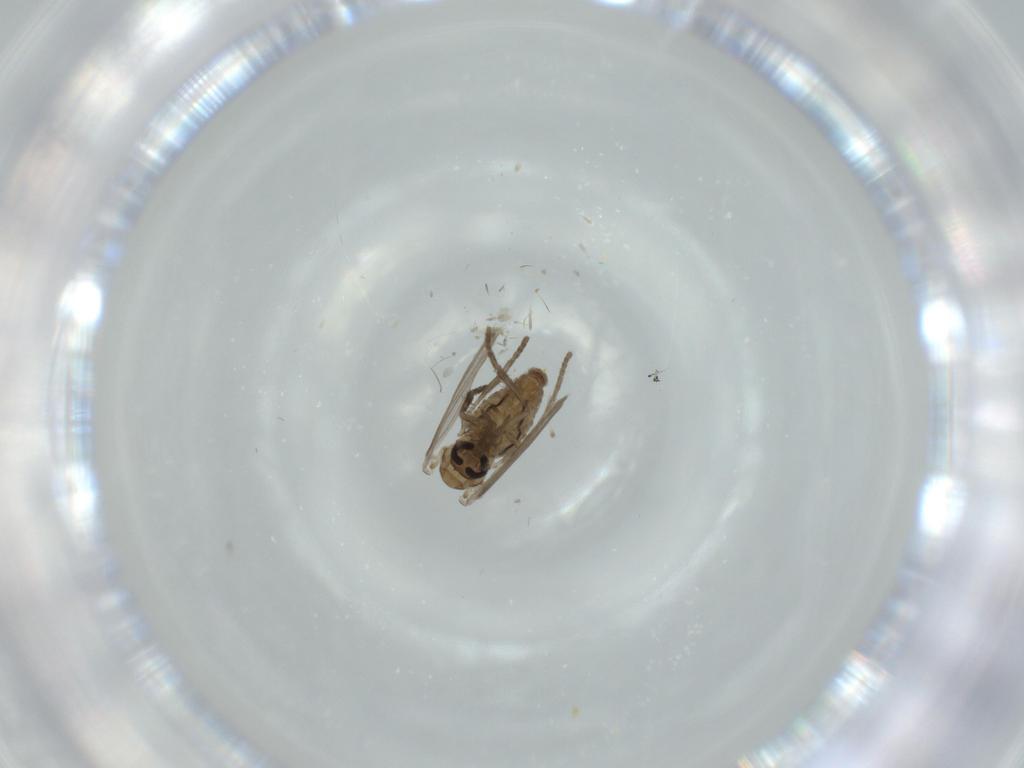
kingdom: Animalia
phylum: Arthropoda
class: Insecta
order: Diptera
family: Psychodidae
